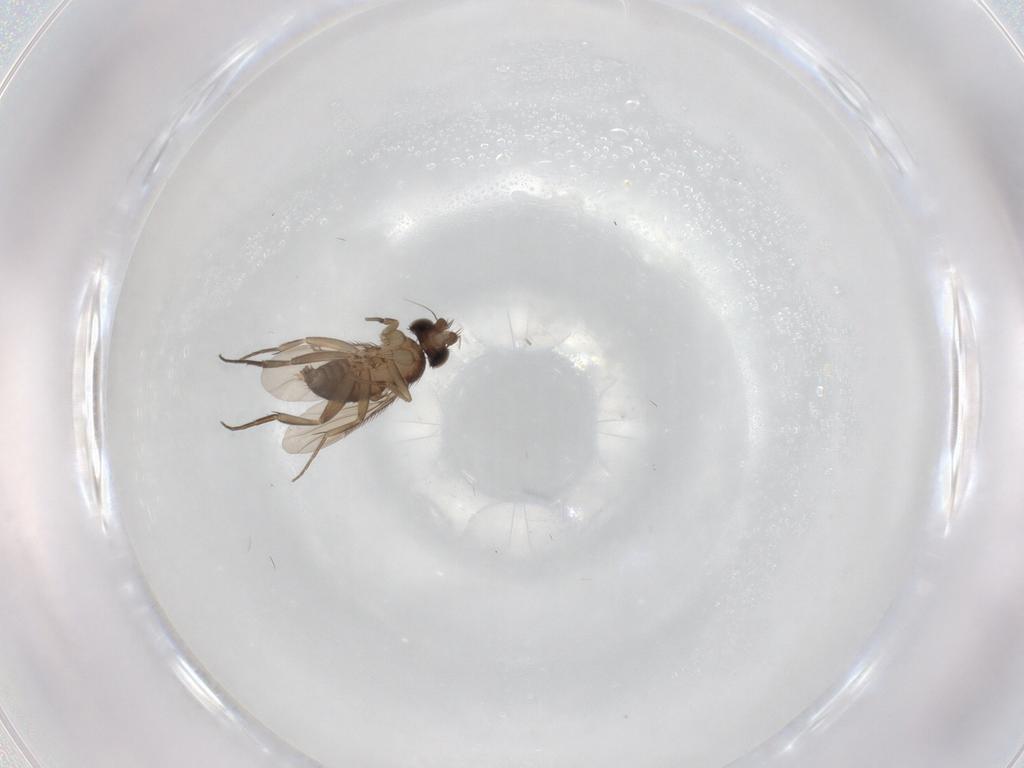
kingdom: Animalia
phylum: Arthropoda
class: Insecta
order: Diptera
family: Phoridae
